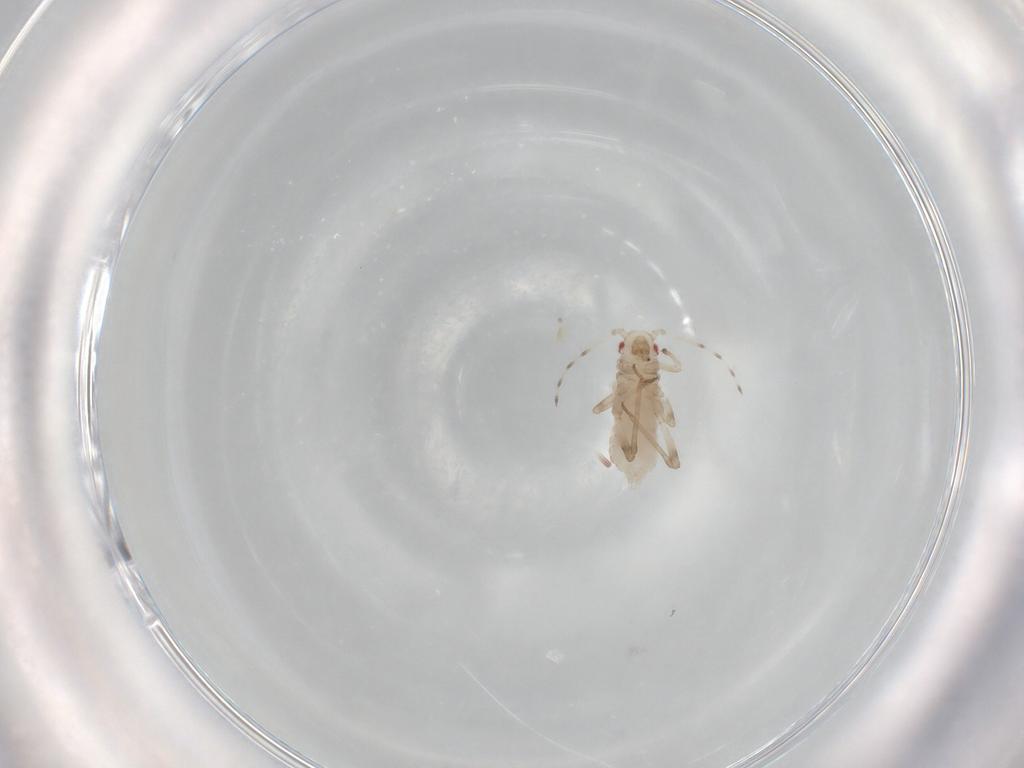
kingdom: Animalia
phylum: Arthropoda
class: Insecta
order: Hemiptera
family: Aphididae
